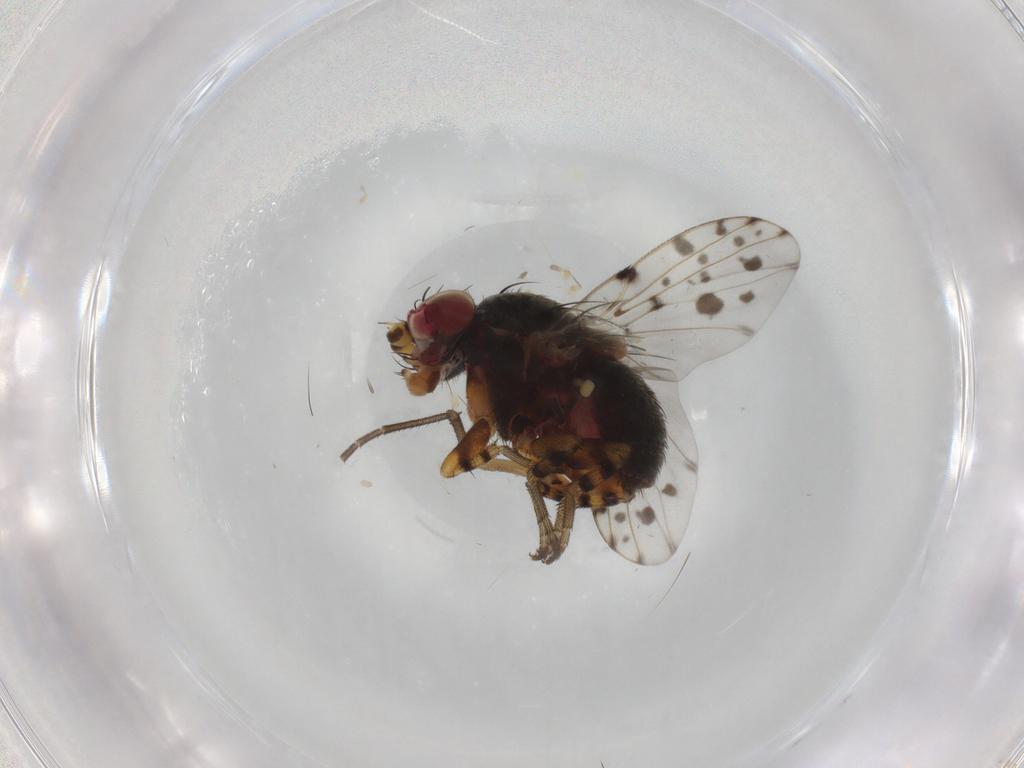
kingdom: Animalia
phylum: Arthropoda
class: Insecta
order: Diptera
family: Odiniidae
